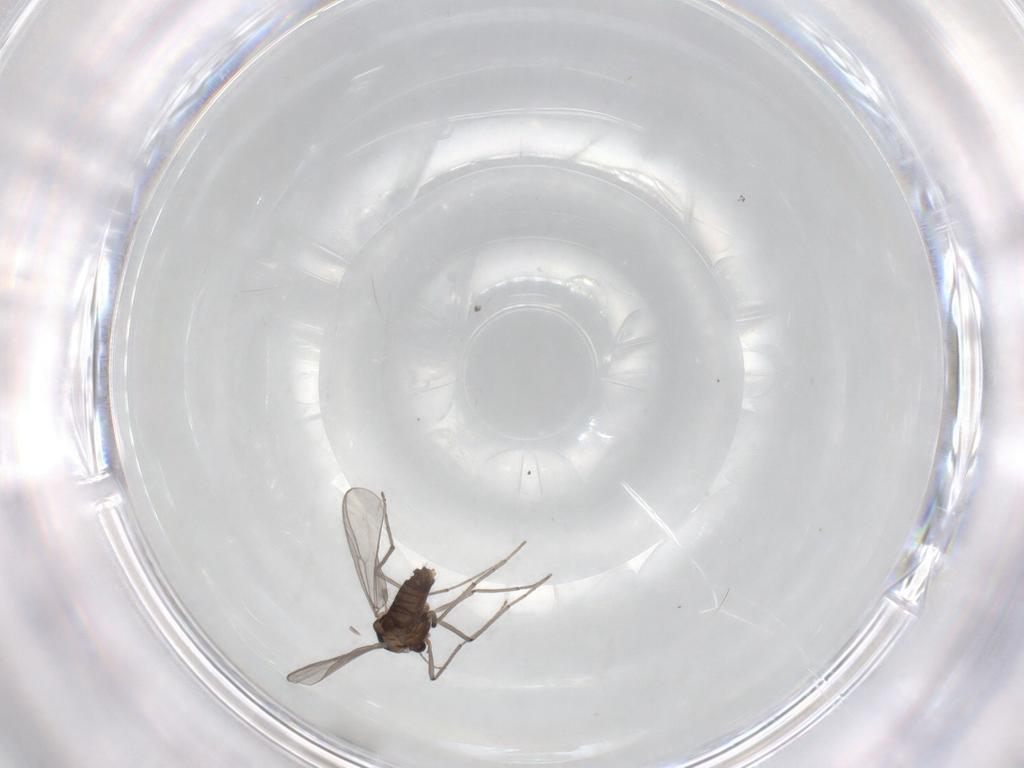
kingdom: Animalia
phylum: Arthropoda
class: Insecta
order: Diptera
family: Chironomidae
